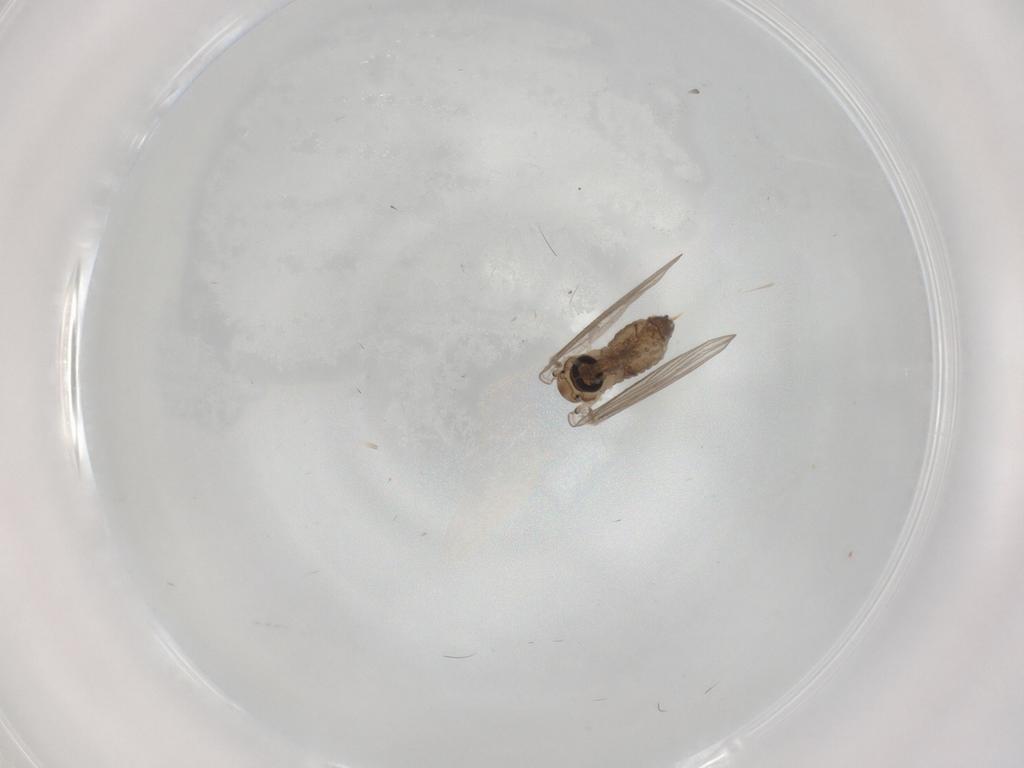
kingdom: Animalia
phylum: Arthropoda
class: Insecta
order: Diptera
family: Psychodidae
